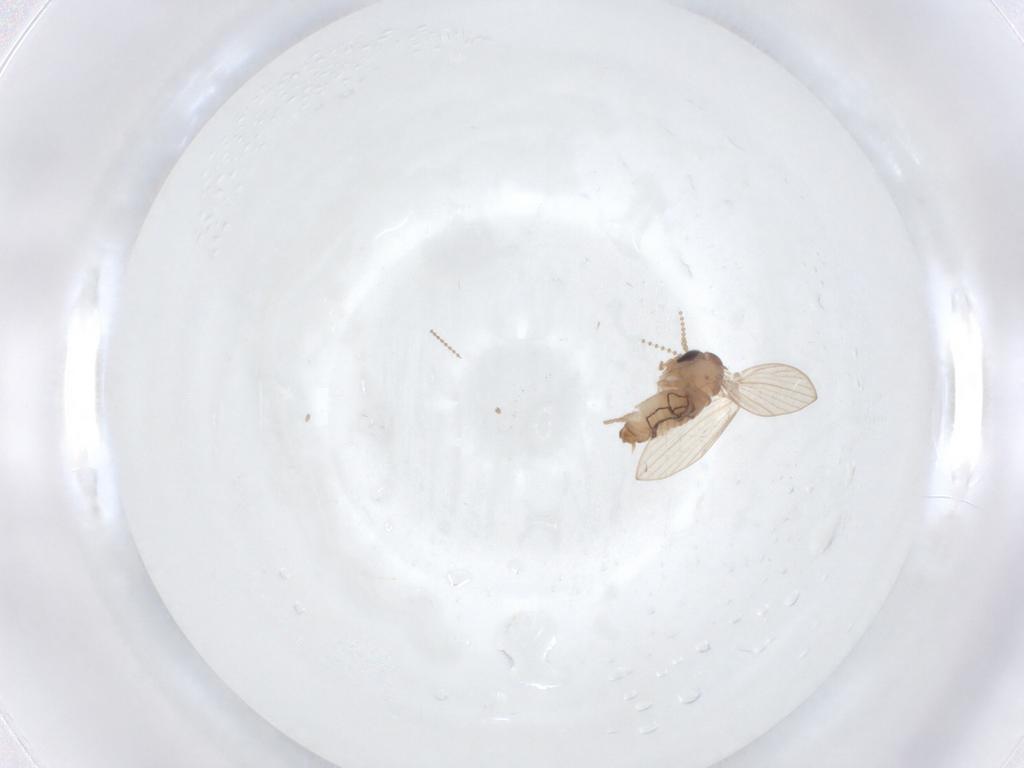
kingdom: Animalia
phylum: Arthropoda
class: Insecta
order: Diptera
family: Psychodidae
